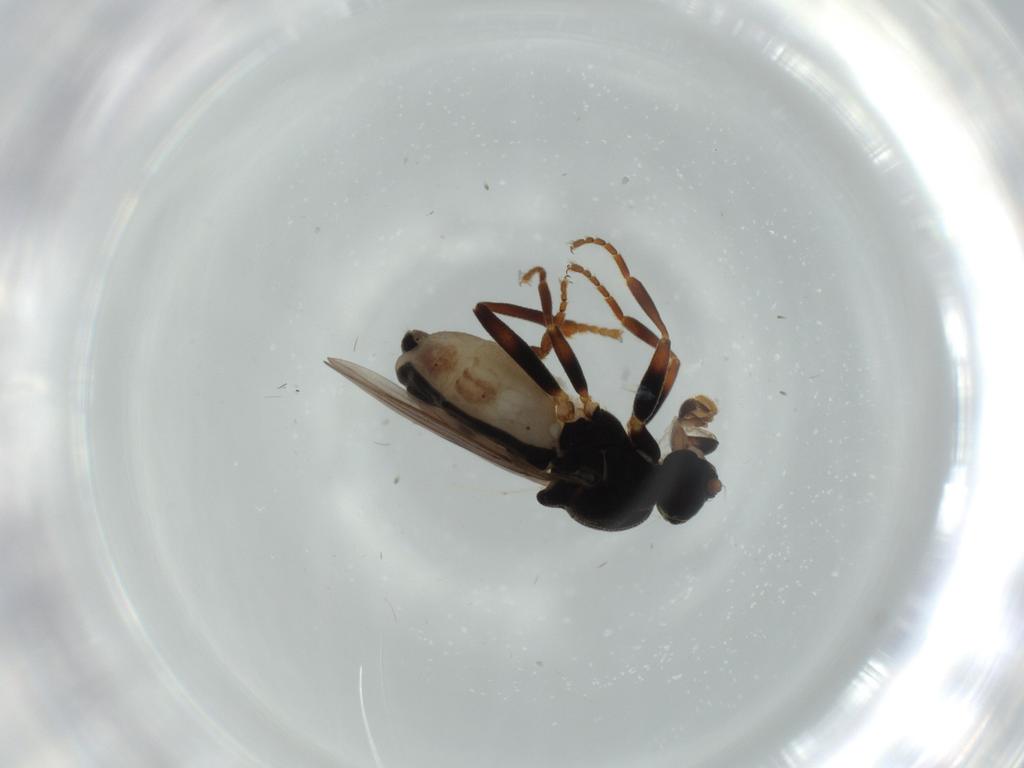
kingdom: Animalia
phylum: Arthropoda
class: Insecta
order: Diptera
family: Sphaeroceridae
